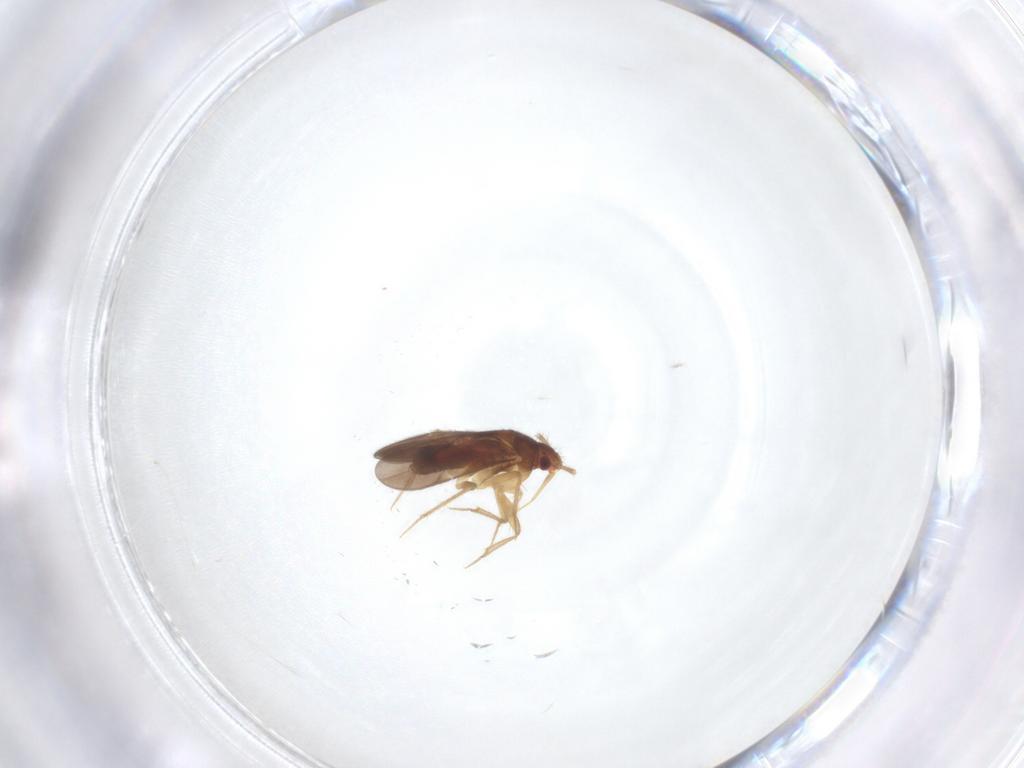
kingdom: Animalia
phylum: Arthropoda
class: Insecta
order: Hemiptera
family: Ceratocombidae
